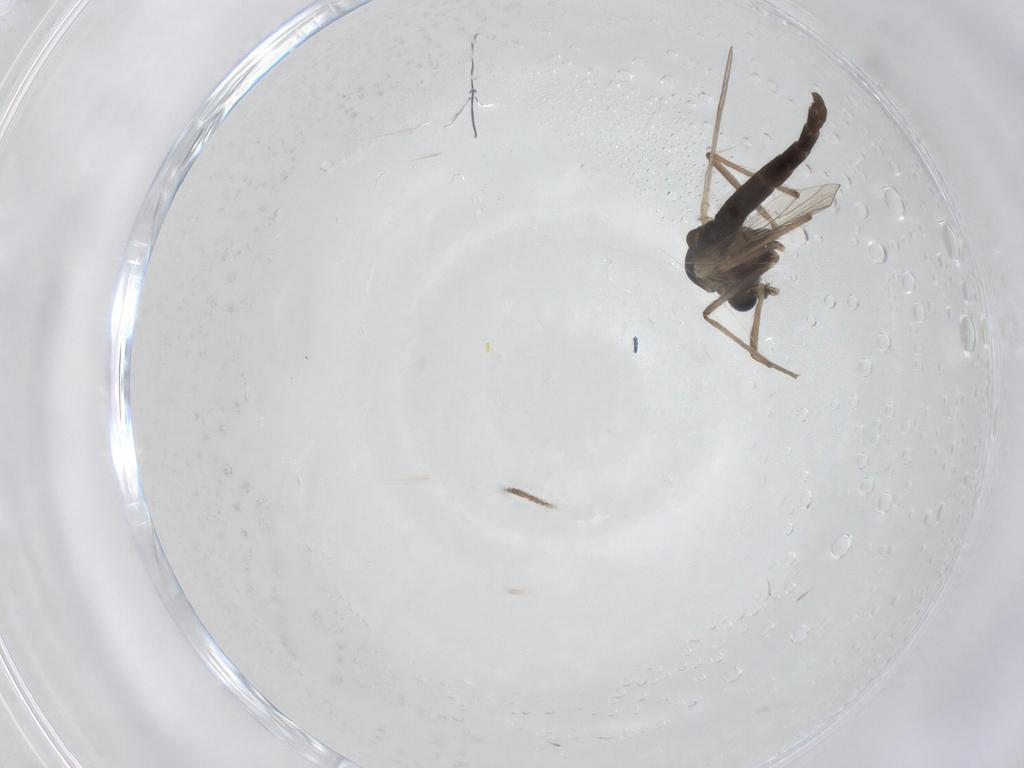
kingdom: Animalia
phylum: Arthropoda
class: Insecta
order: Diptera
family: Chironomidae
